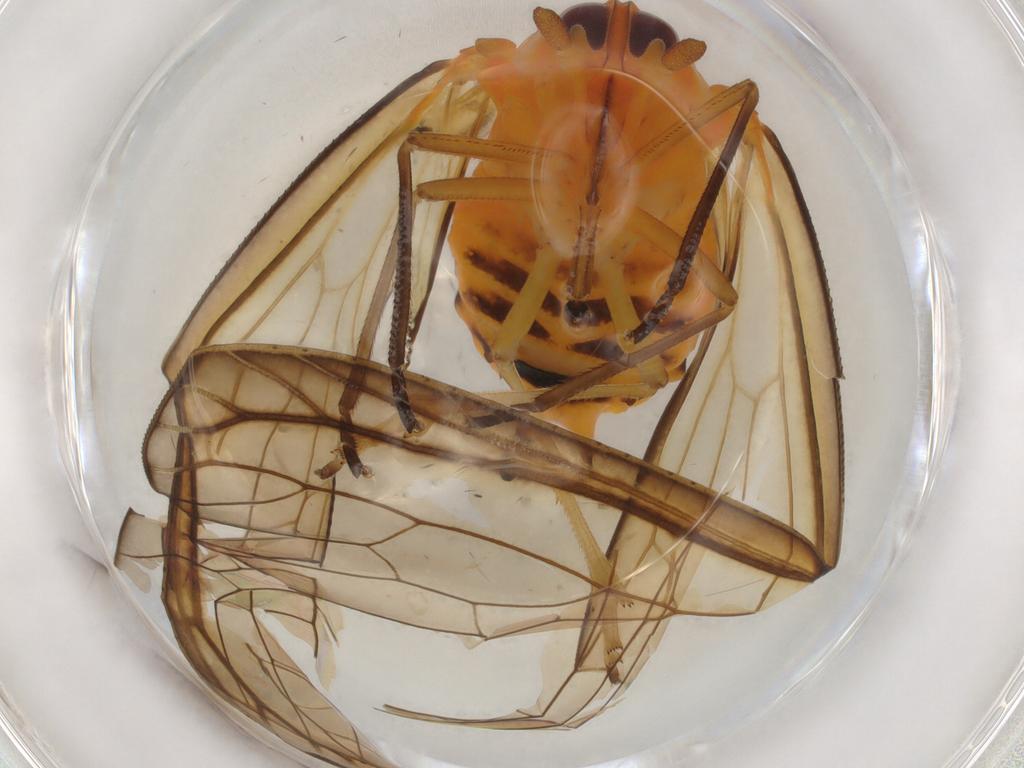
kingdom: Animalia
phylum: Arthropoda
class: Insecta
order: Hemiptera
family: Derbidae
